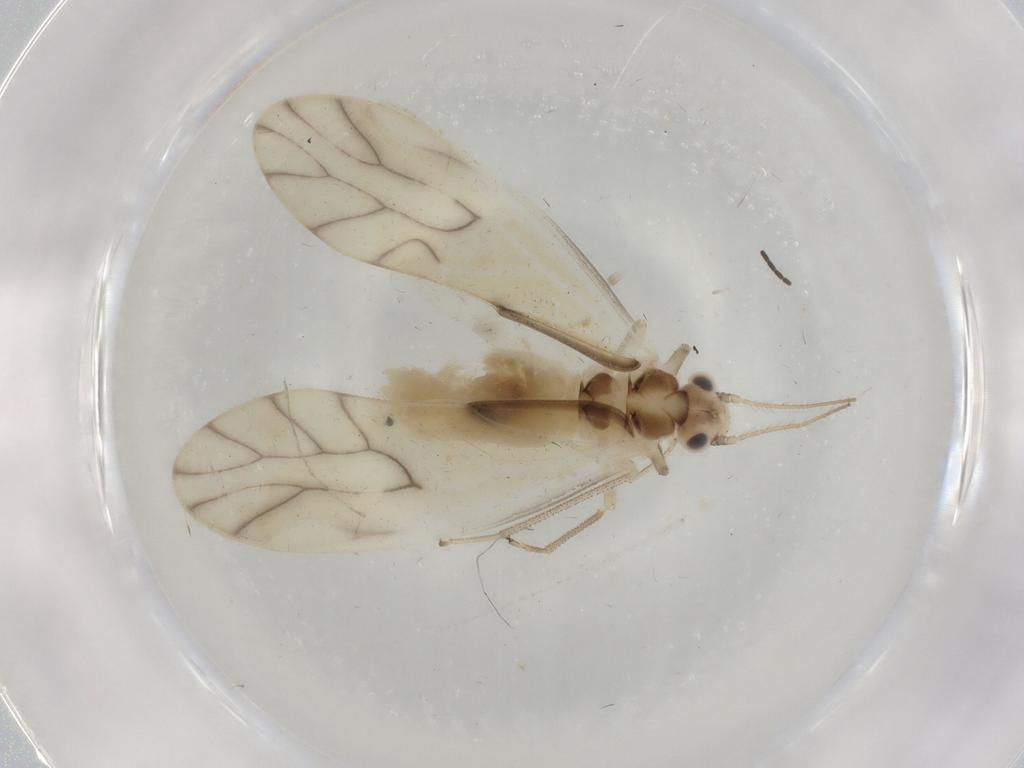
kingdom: Animalia
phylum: Arthropoda
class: Insecta
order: Psocodea
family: Caeciliusidae
